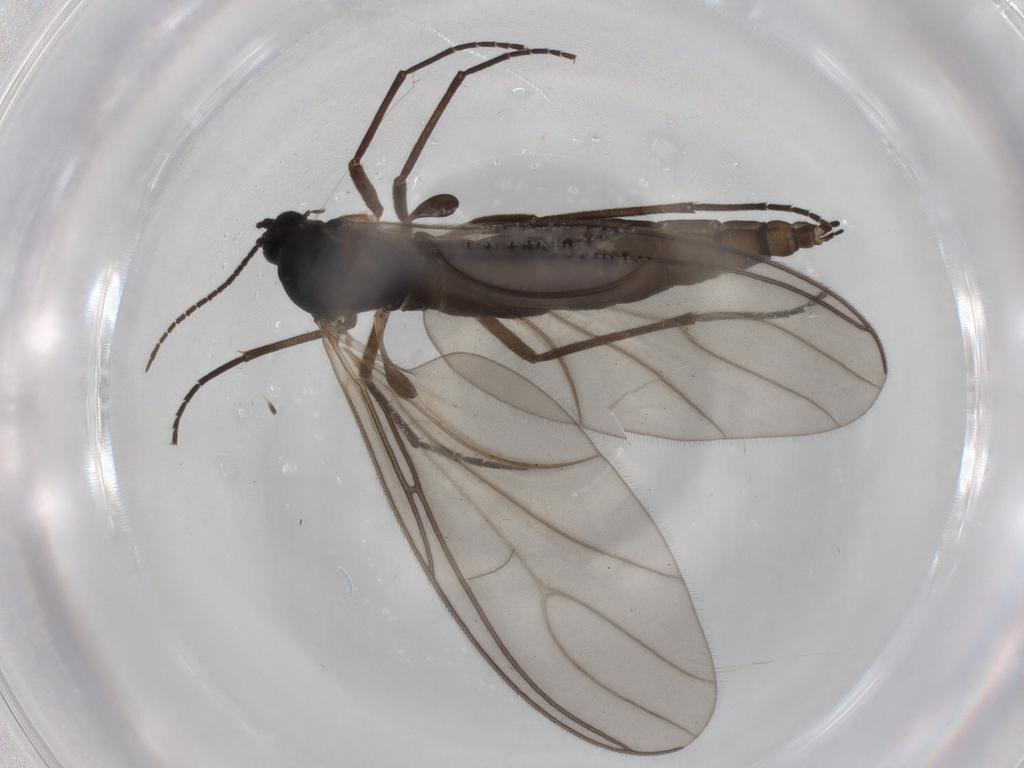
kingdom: Animalia
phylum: Arthropoda
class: Insecta
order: Diptera
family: Sciaridae
